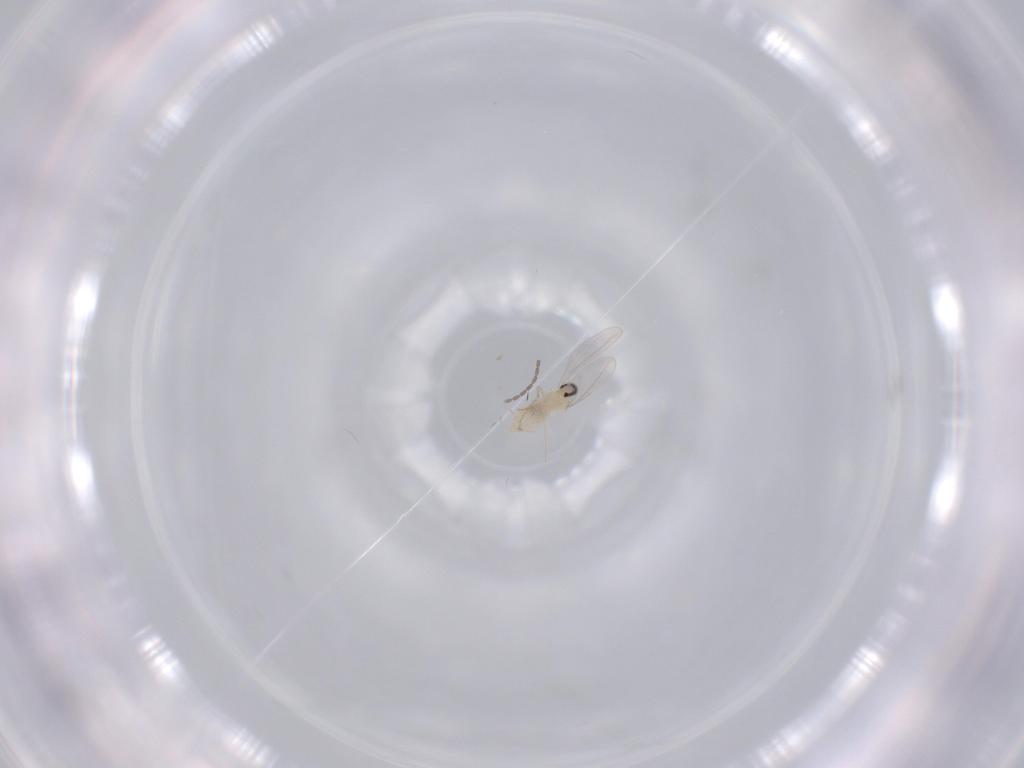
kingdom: Animalia
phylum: Arthropoda
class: Insecta
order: Diptera
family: Cecidomyiidae
